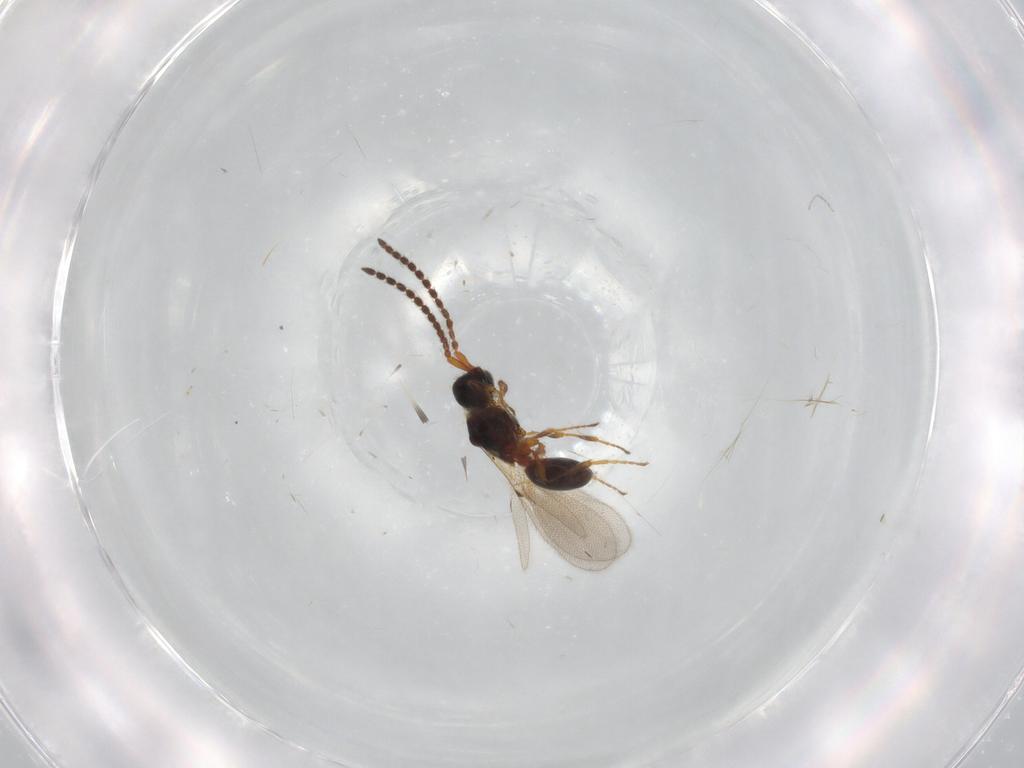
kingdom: Animalia
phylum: Arthropoda
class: Insecta
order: Hymenoptera
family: Diapriidae
